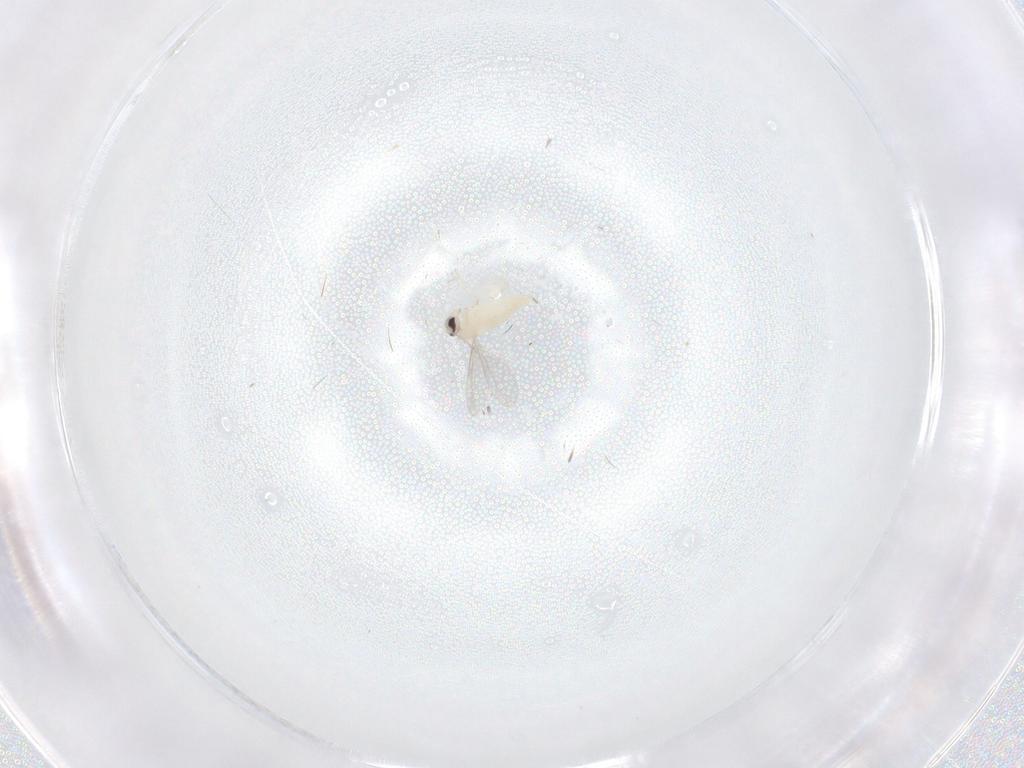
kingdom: Animalia
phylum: Arthropoda
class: Insecta
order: Diptera
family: Cecidomyiidae
